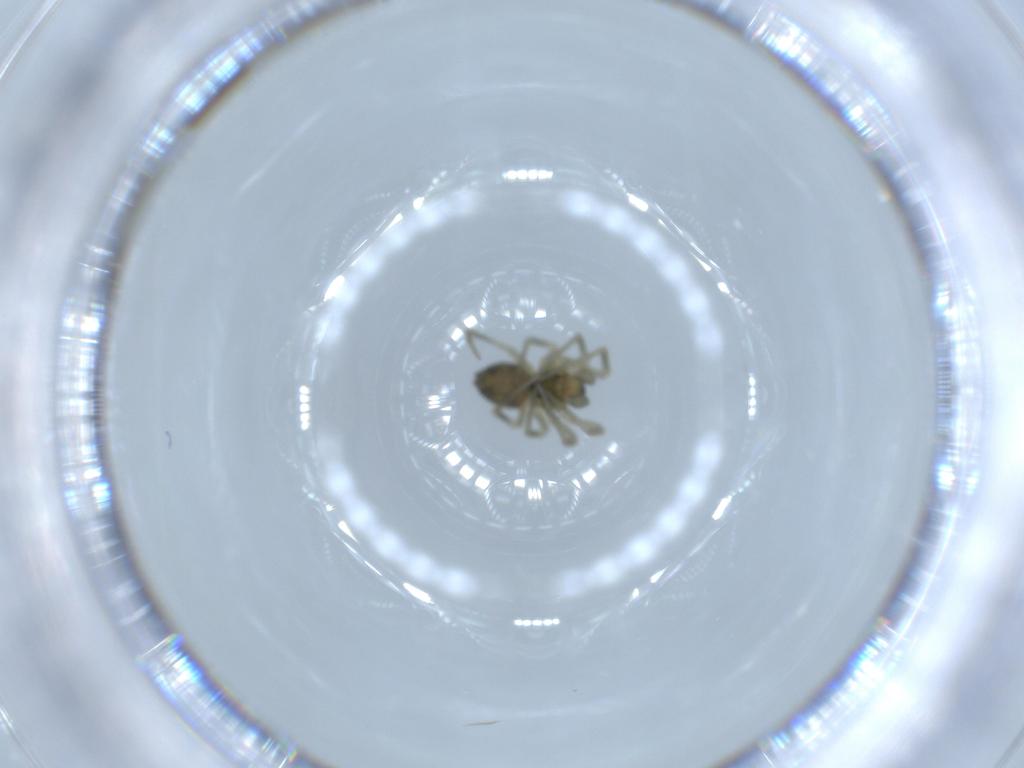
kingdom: Animalia
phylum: Arthropoda
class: Arachnida
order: Araneae
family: Linyphiidae
